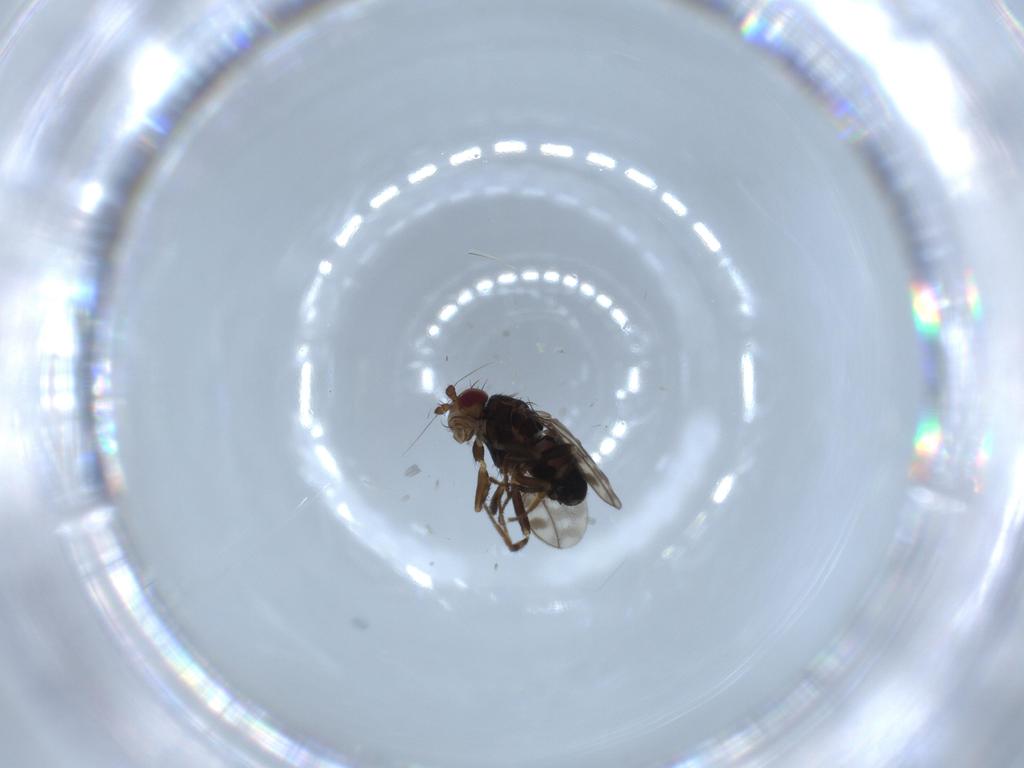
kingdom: Animalia
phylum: Arthropoda
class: Insecta
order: Diptera
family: Sphaeroceridae
